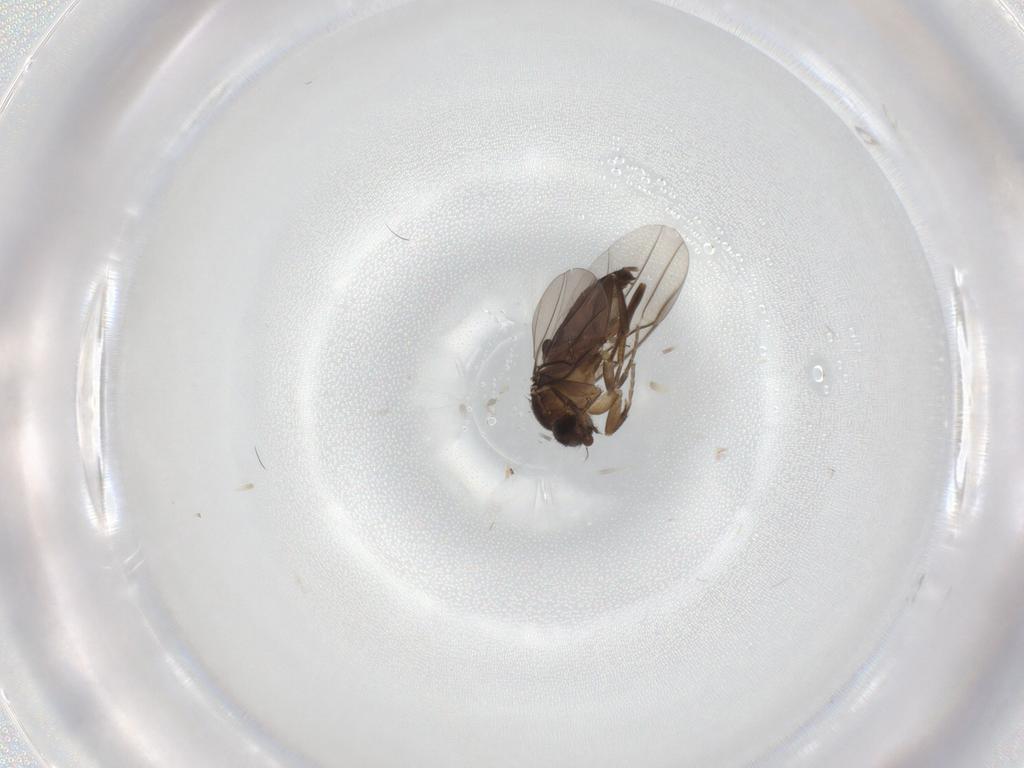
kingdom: Animalia
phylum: Arthropoda
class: Insecta
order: Diptera
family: Phoridae
